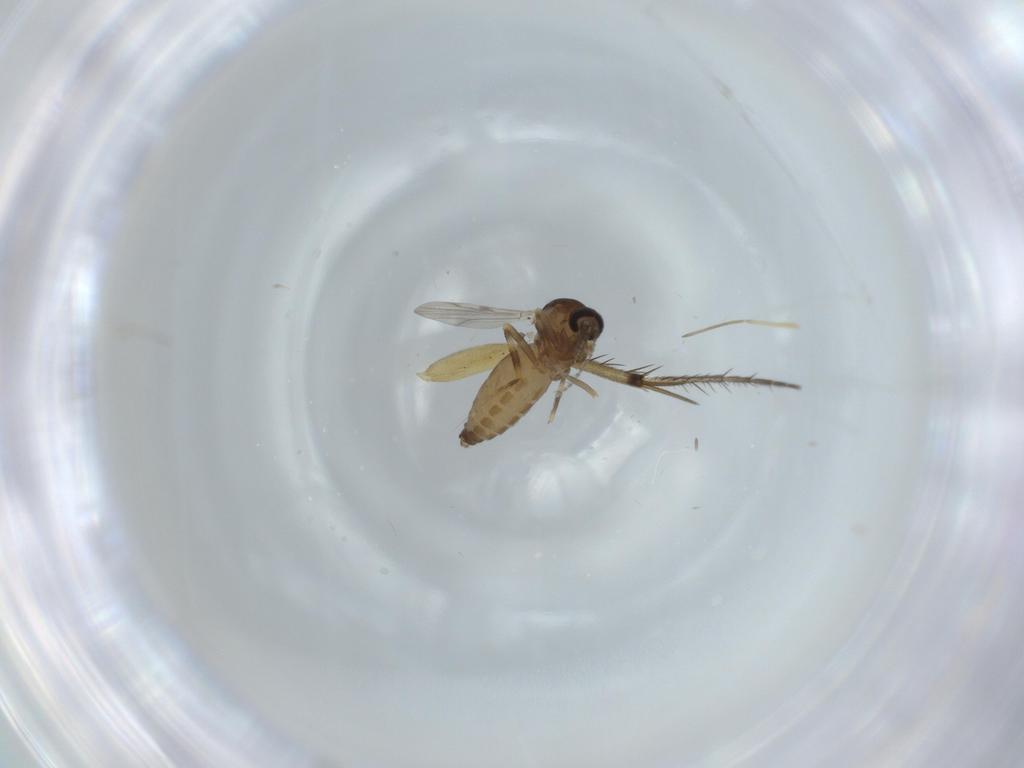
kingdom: Animalia
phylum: Arthropoda
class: Insecta
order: Diptera
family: Ceratopogonidae
